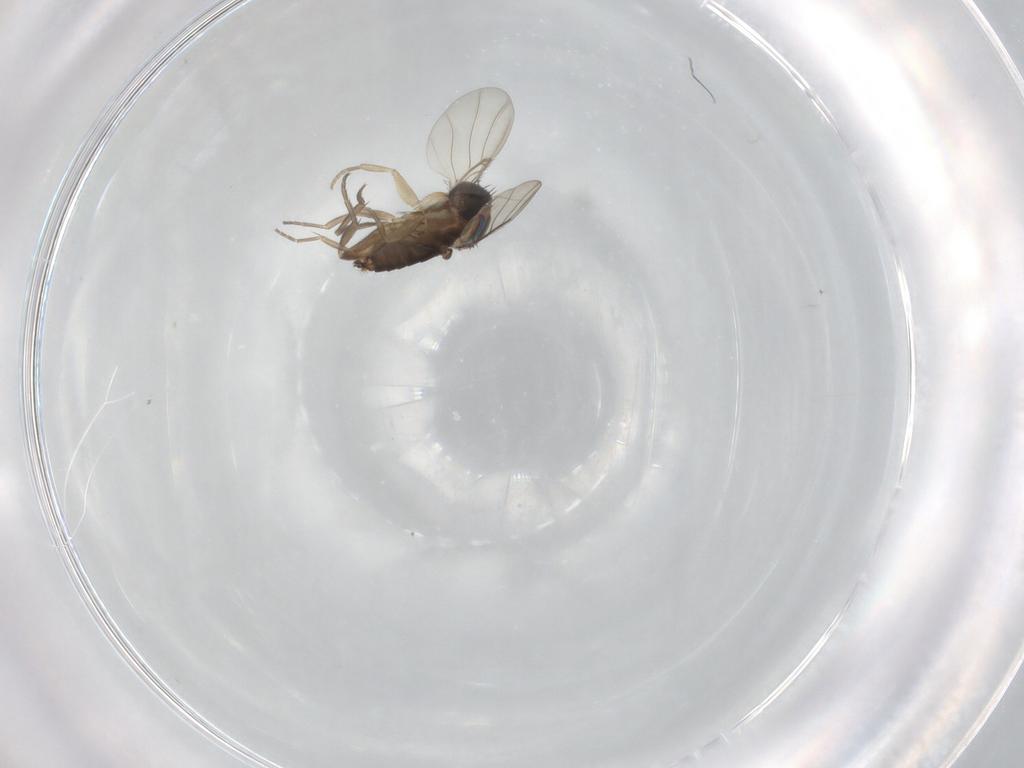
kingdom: Animalia
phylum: Arthropoda
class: Insecta
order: Diptera
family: Phoridae
